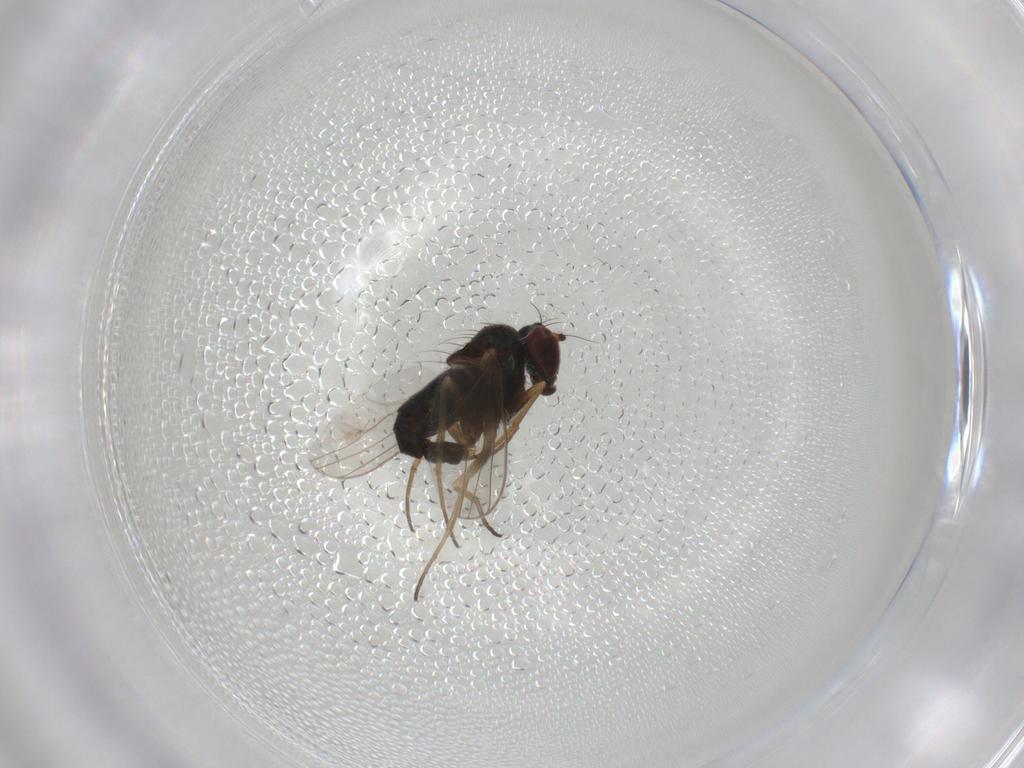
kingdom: Animalia
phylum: Arthropoda
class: Insecta
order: Diptera
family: Dolichopodidae
